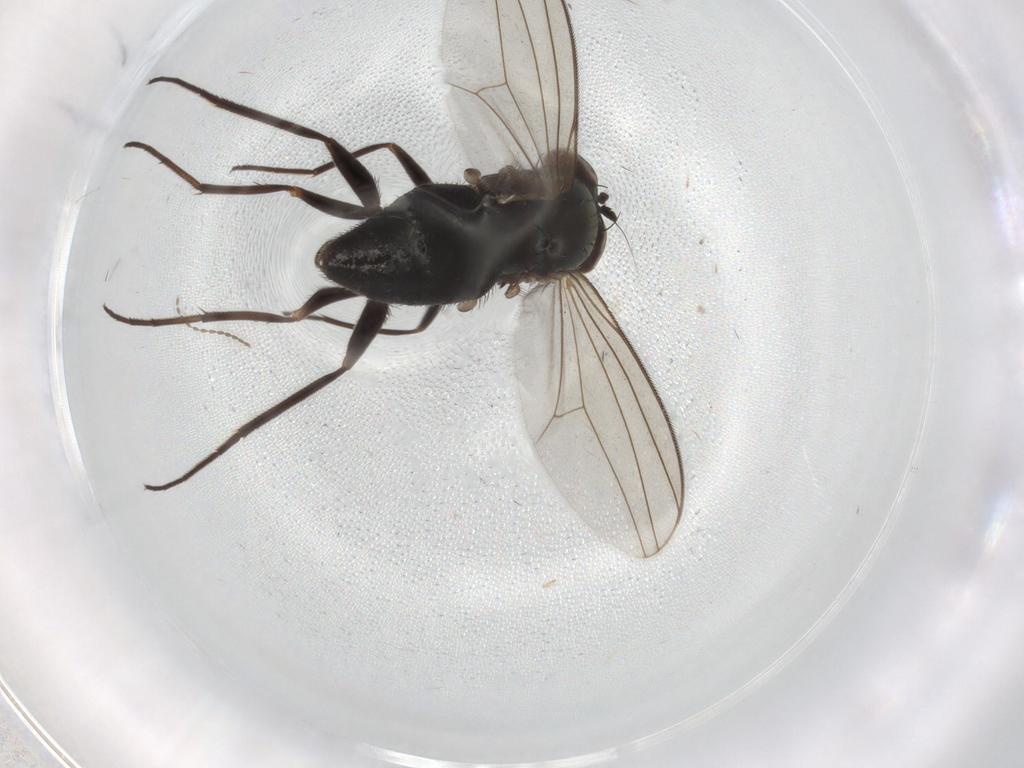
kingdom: Animalia
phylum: Arthropoda
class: Insecta
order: Diptera
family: Dolichopodidae
